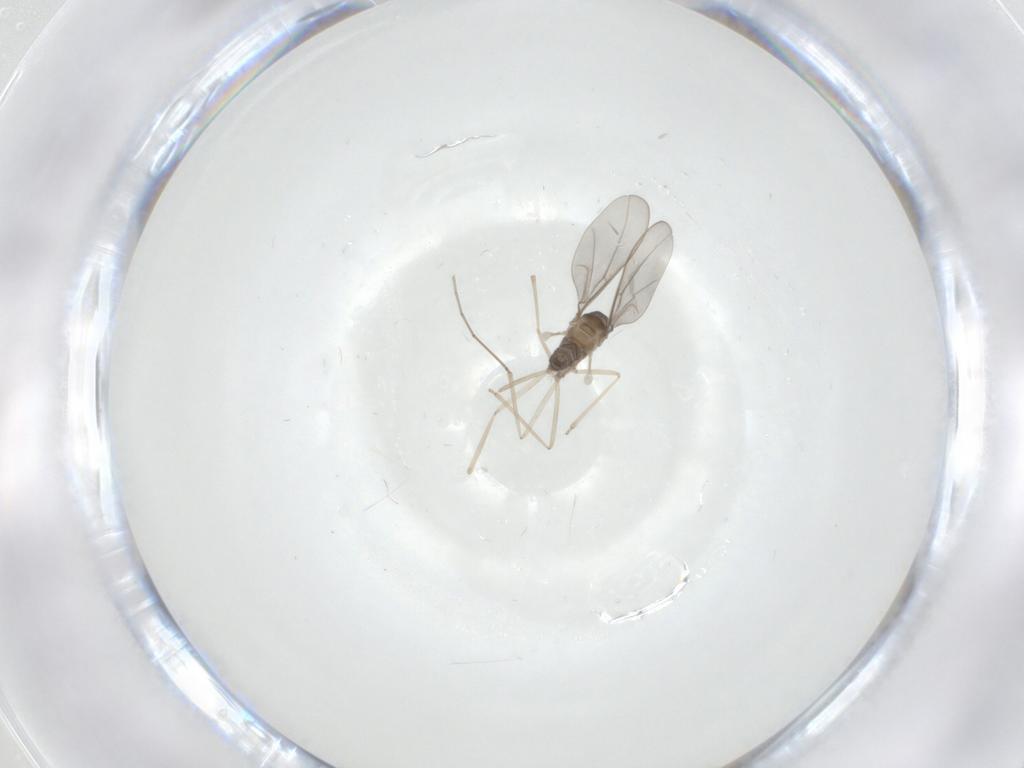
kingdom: Animalia
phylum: Arthropoda
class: Insecta
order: Diptera
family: Cecidomyiidae
